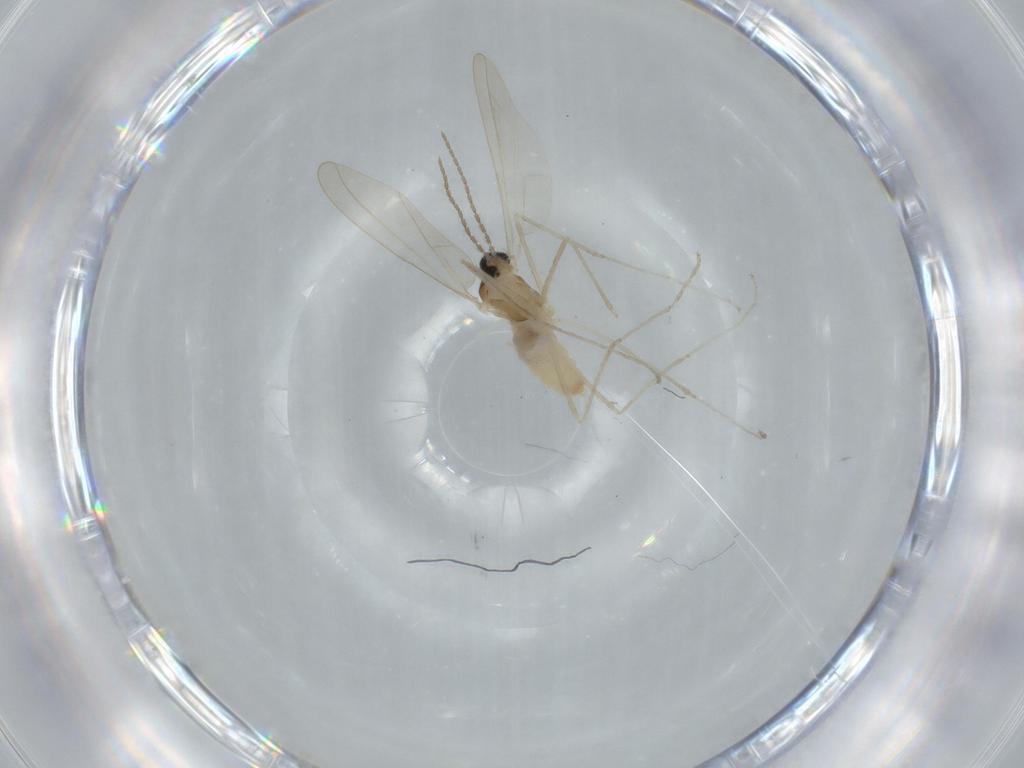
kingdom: Animalia
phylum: Arthropoda
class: Insecta
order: Diptera
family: Cecidomyiidae
